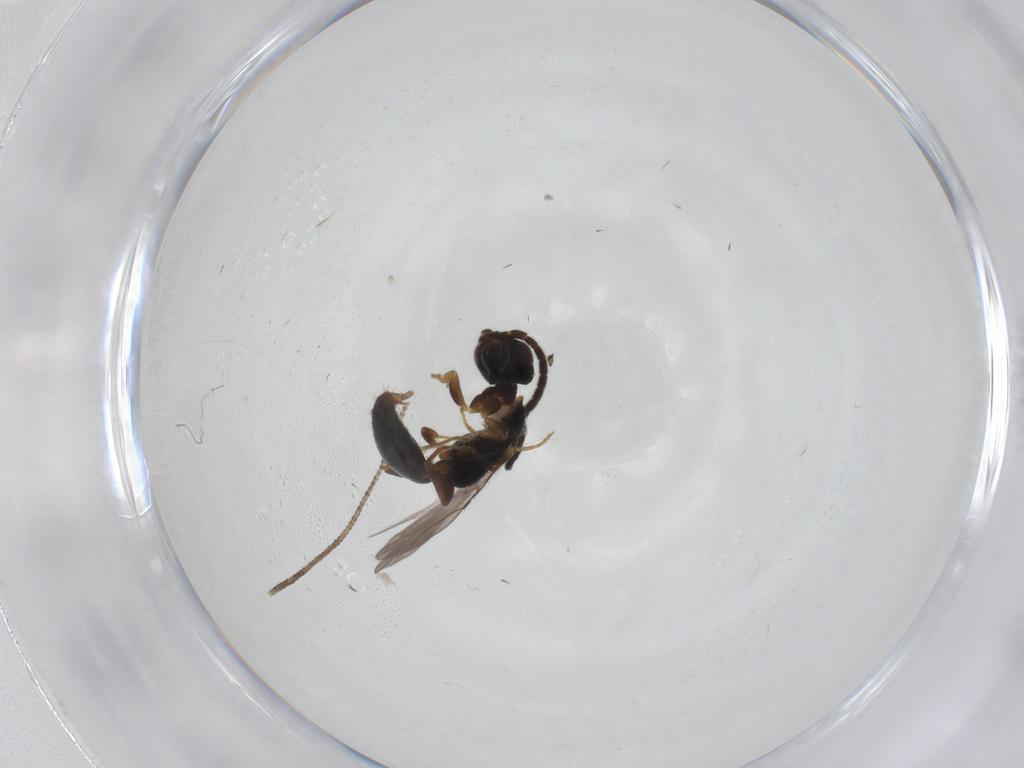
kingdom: Animalia
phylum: Arthropoda
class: Insecta
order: Hymenoptera
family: Bethylidae
